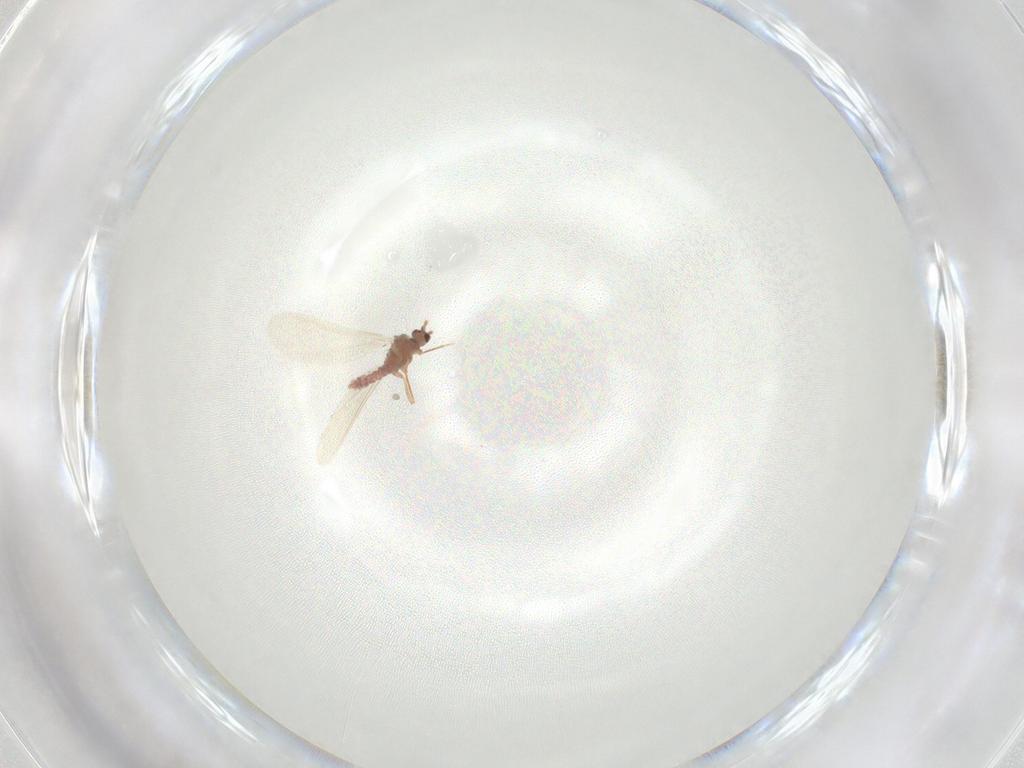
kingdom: Animalia
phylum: Arthropoda
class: Insecta
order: Hemiptera
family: Pseudococcidae
